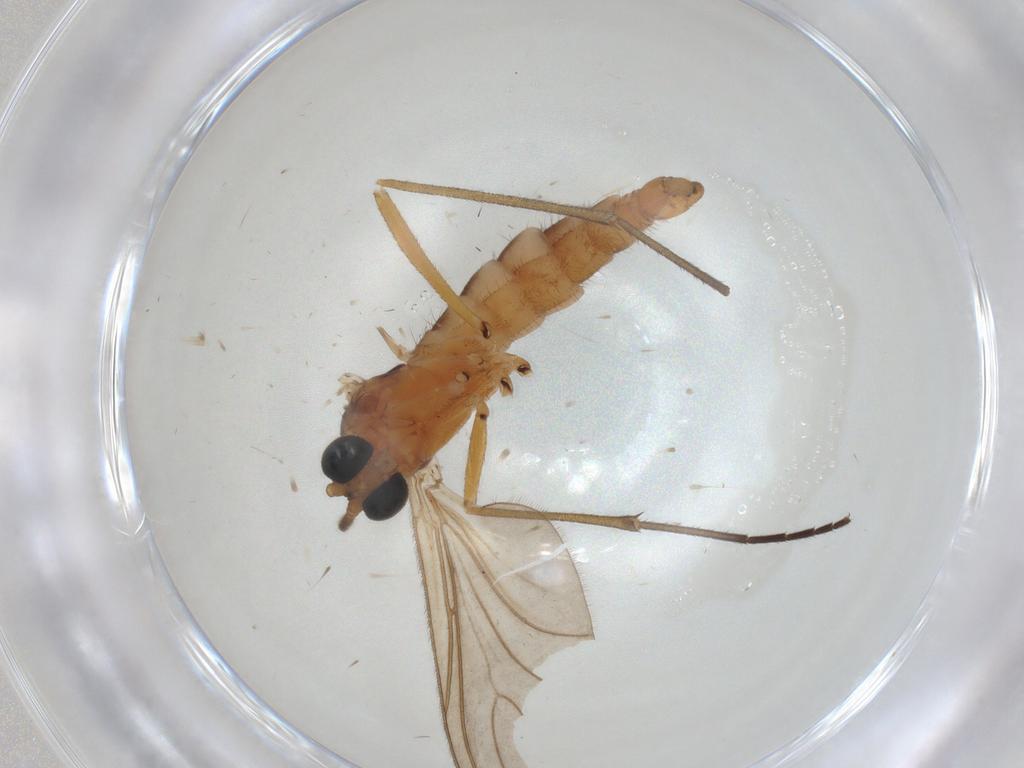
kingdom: Animalia
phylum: Arthropoda
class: Insecta
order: Diptera
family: Sciaridae
